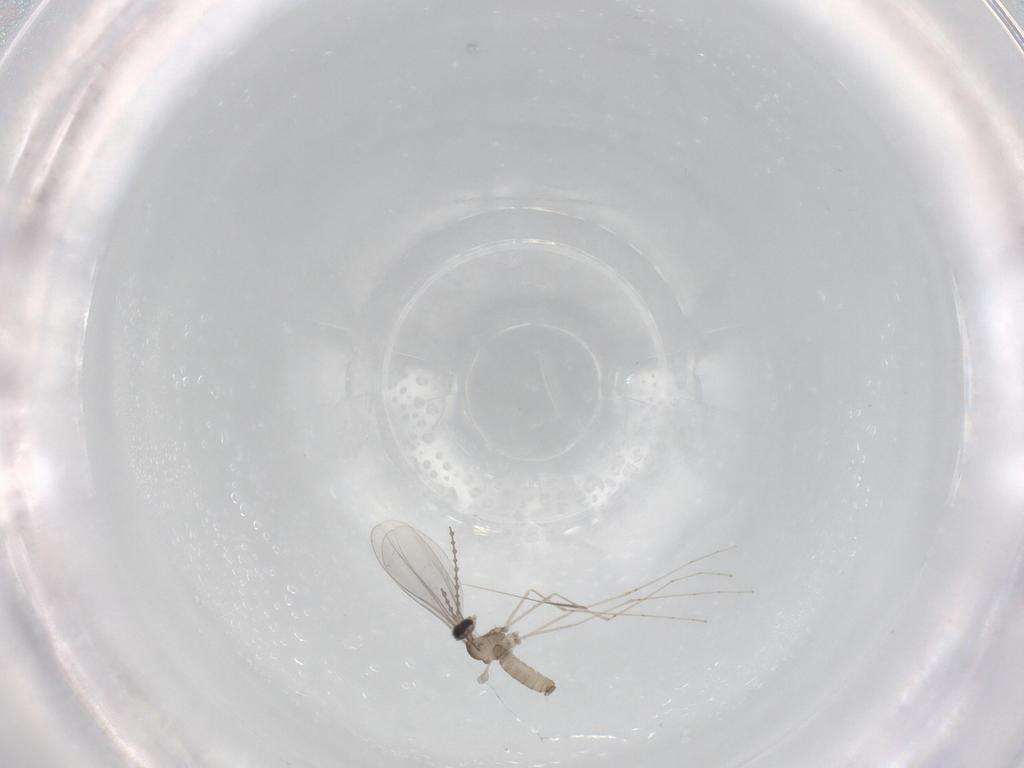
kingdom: Animalia
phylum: Arthropoda
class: Insecta
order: Diptera
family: Cecidomyiidae
